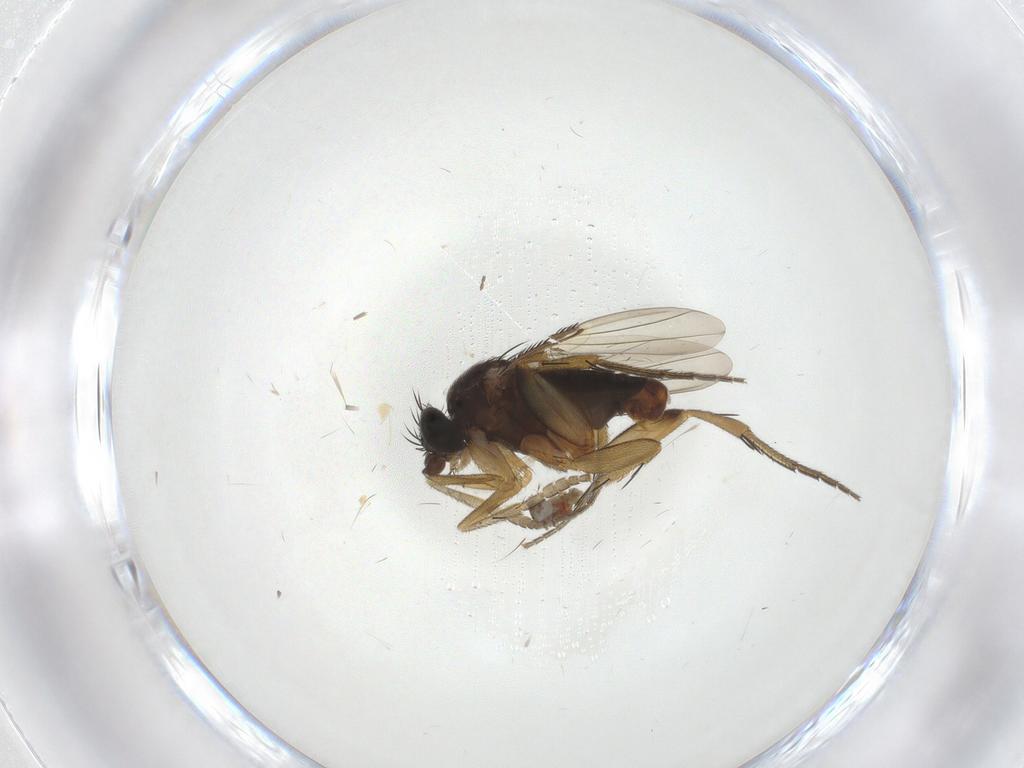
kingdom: Animalia
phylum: Arthropoda
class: Insecta
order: Diptera
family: Phoridae
